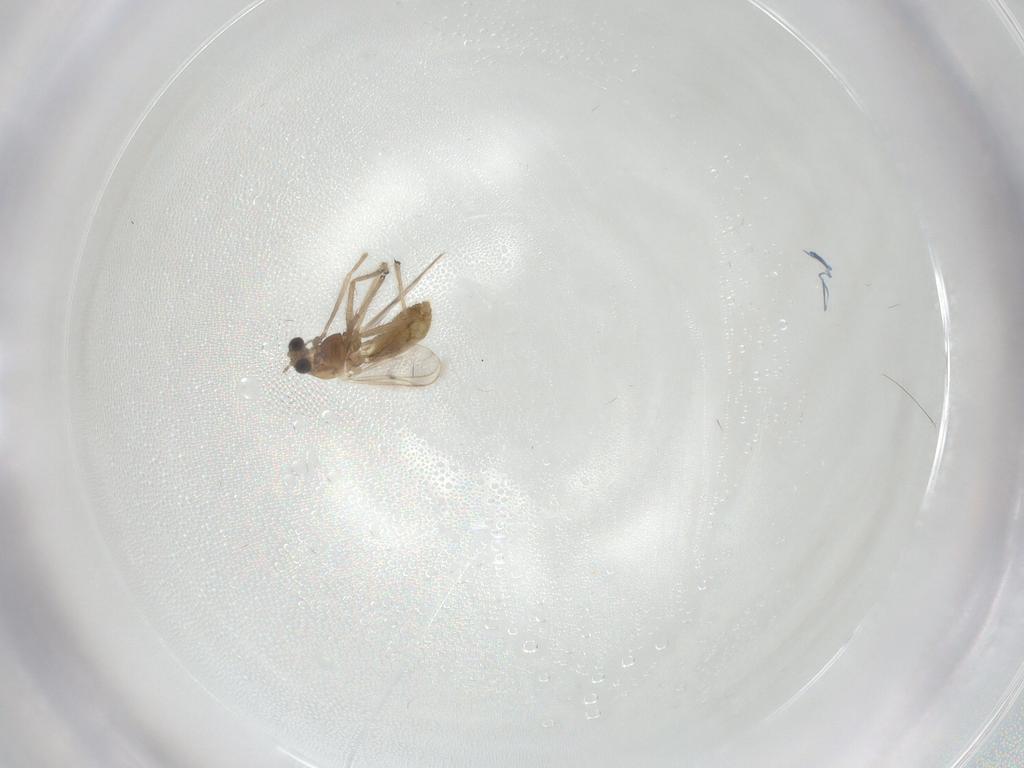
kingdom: Animalia
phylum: Arthropoda
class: Insecta
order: Diptera
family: Chironomidae
